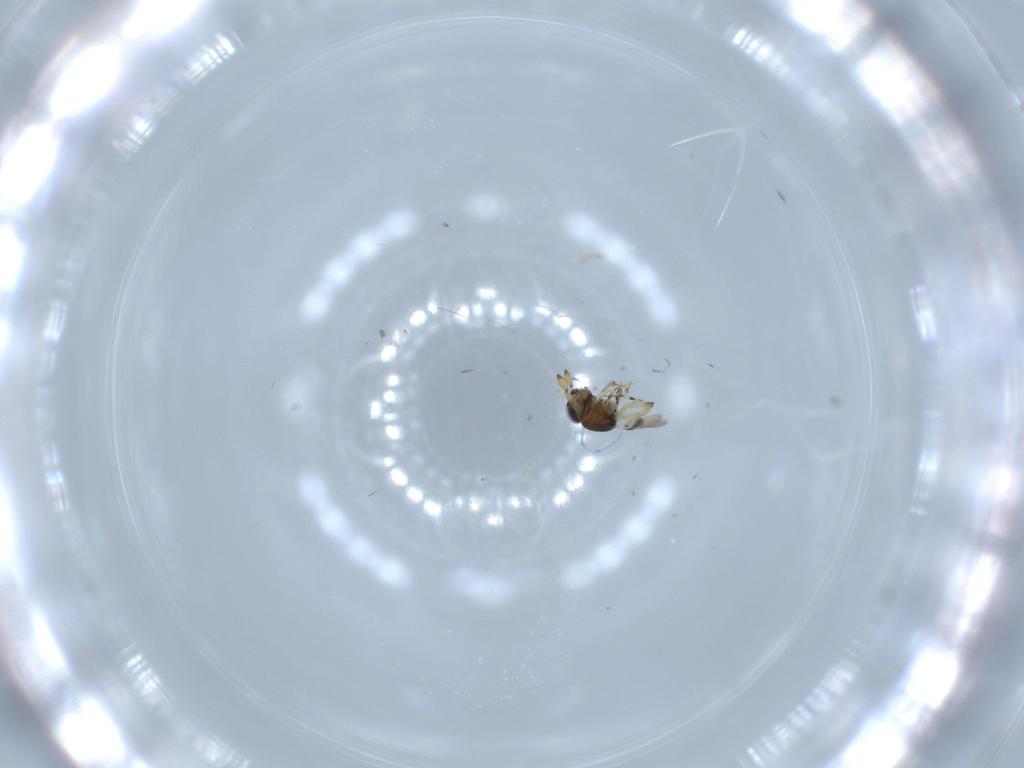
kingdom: Animalia
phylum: Arthropoda
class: Insecta
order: Hymenoptera
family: Scelionidae
